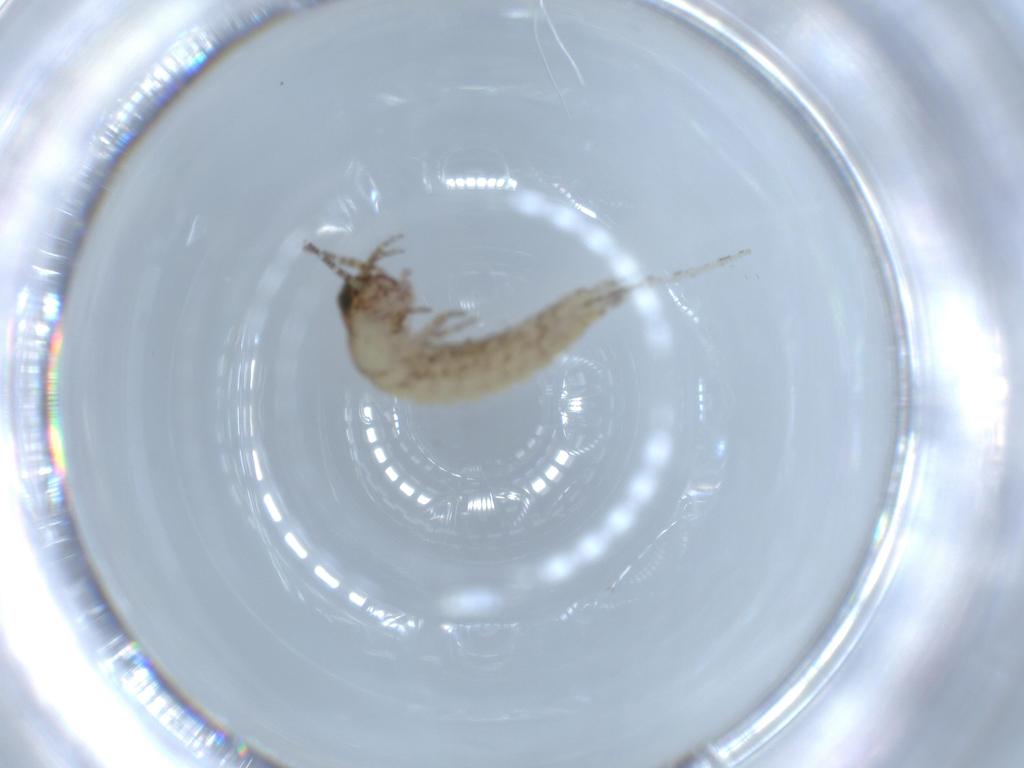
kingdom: Animalia
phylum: Arthropoda
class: Insecta
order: Archaeognatha
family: Machilidae
